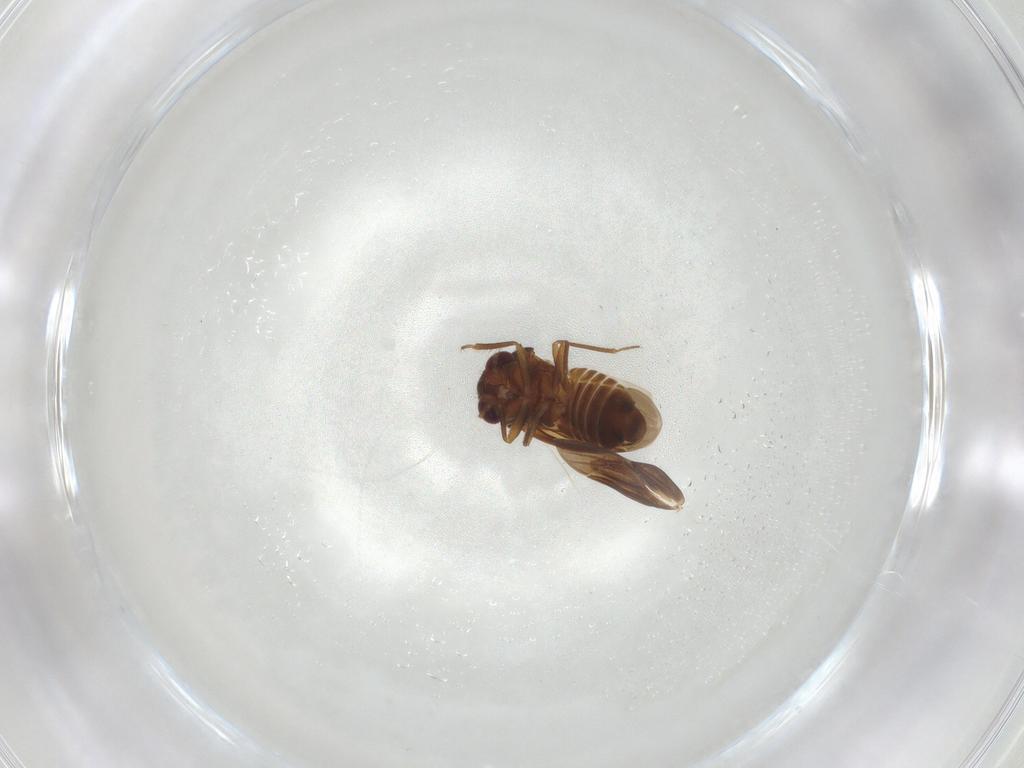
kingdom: Animalia
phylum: Arthropoda
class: Insecta
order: Hemiptera
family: Schizopteridae
